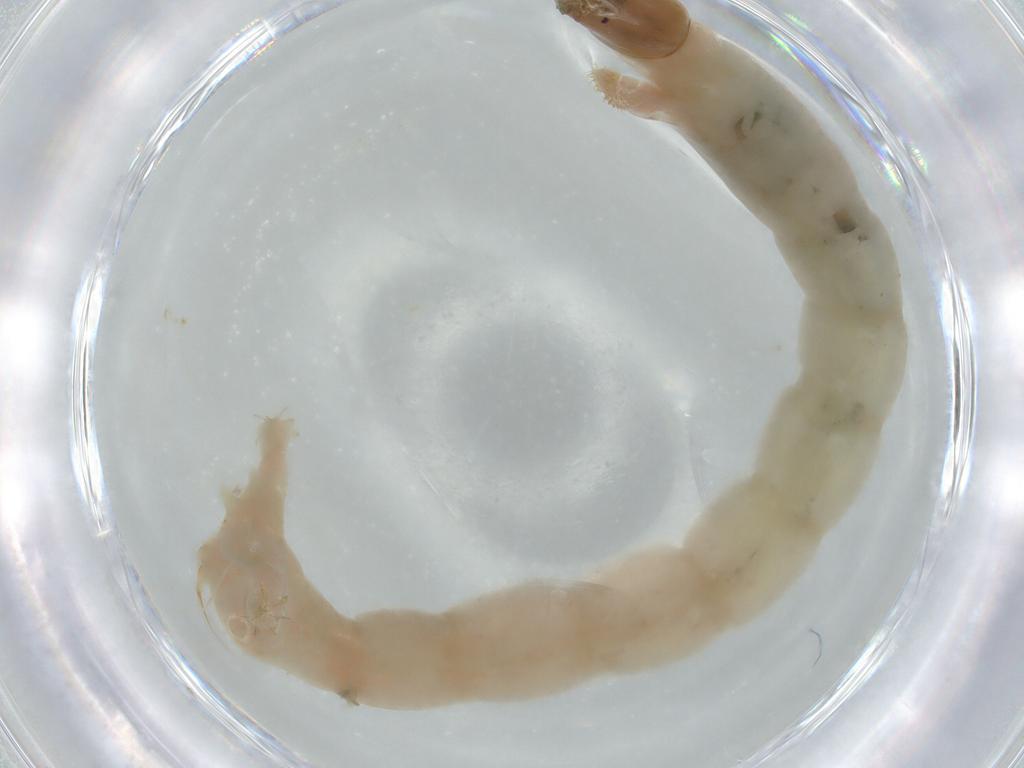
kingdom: Animalia
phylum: Arthropoda
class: Insecta
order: Diptera
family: Chironomidae
